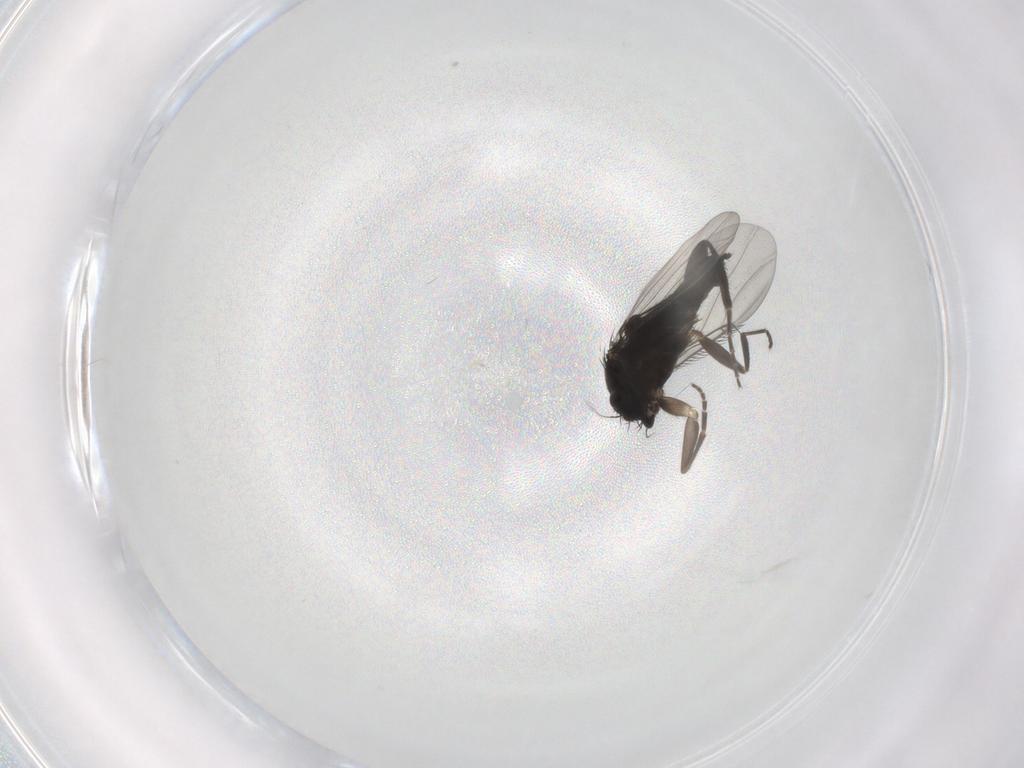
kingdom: Animalia
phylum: Arthropoda
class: Insecta
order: Diptera
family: Phoridae
